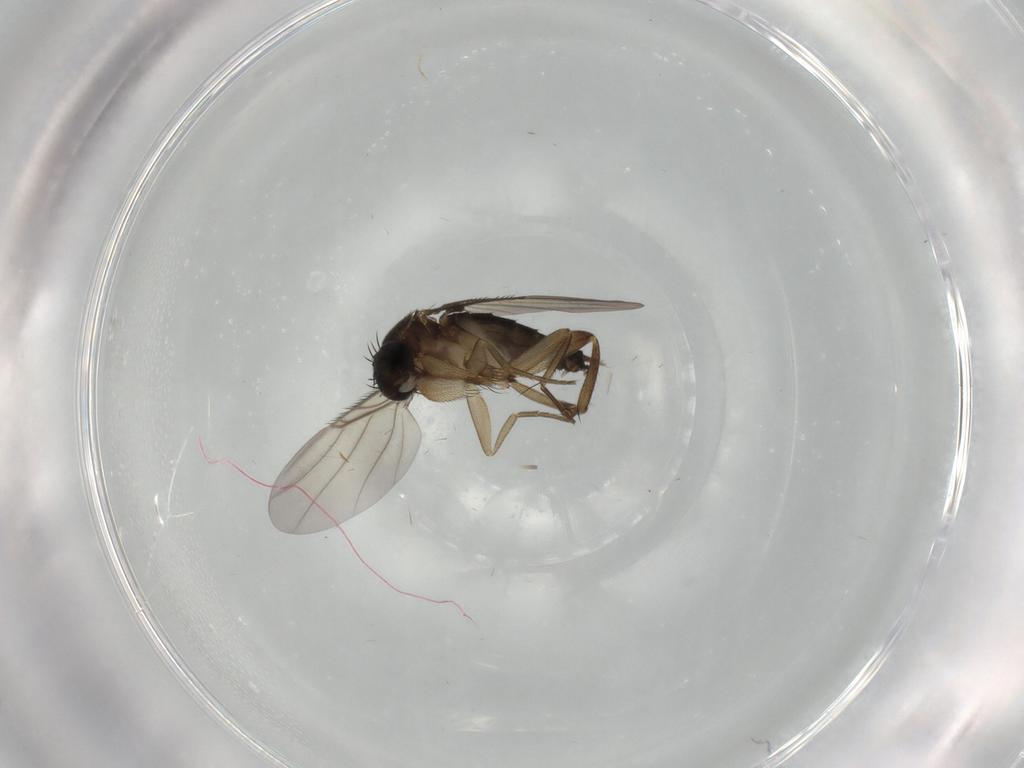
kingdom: Animalia
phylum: Arthropoda
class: Insecta
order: Diptera
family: Phoridae
